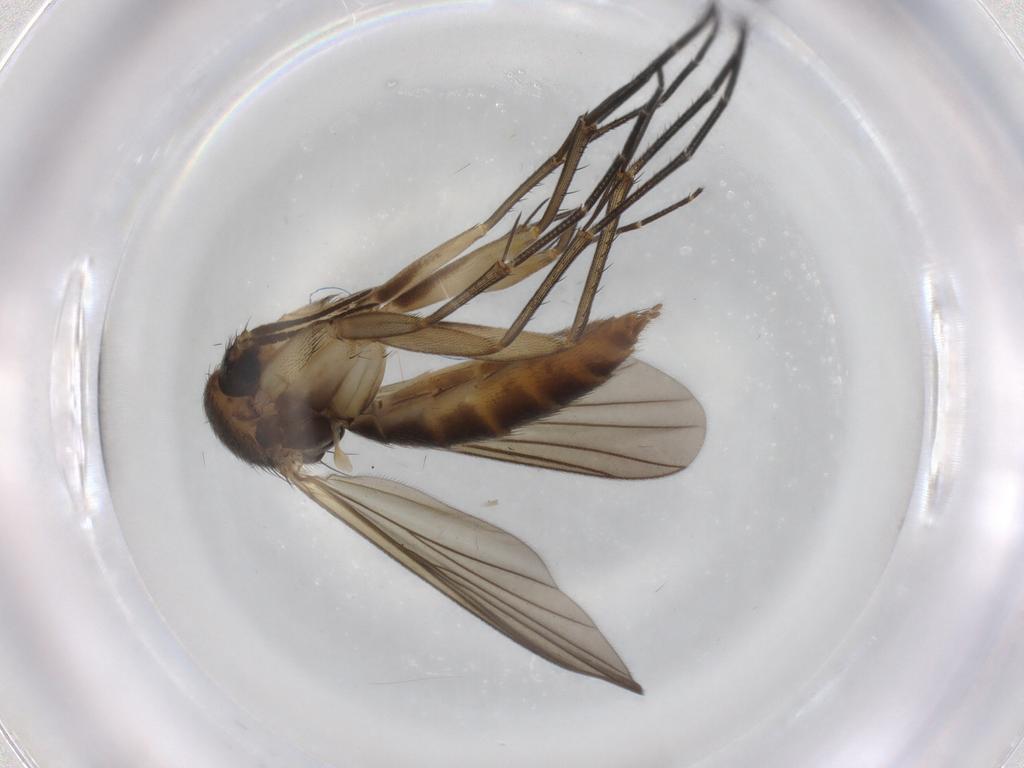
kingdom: Animalia
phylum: Arthropoda
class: Insecta
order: Diptera
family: Mycetophilidae
